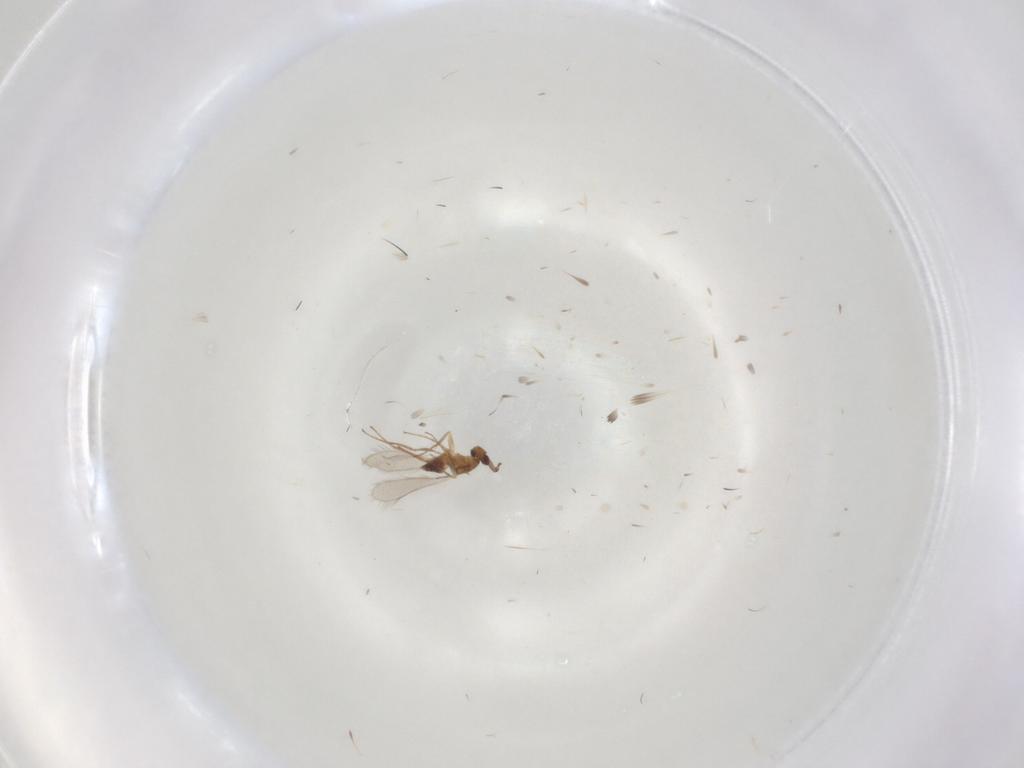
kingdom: Animalia
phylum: Arthropoda
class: Insecta
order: Hymenoptera
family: Mymaridae
